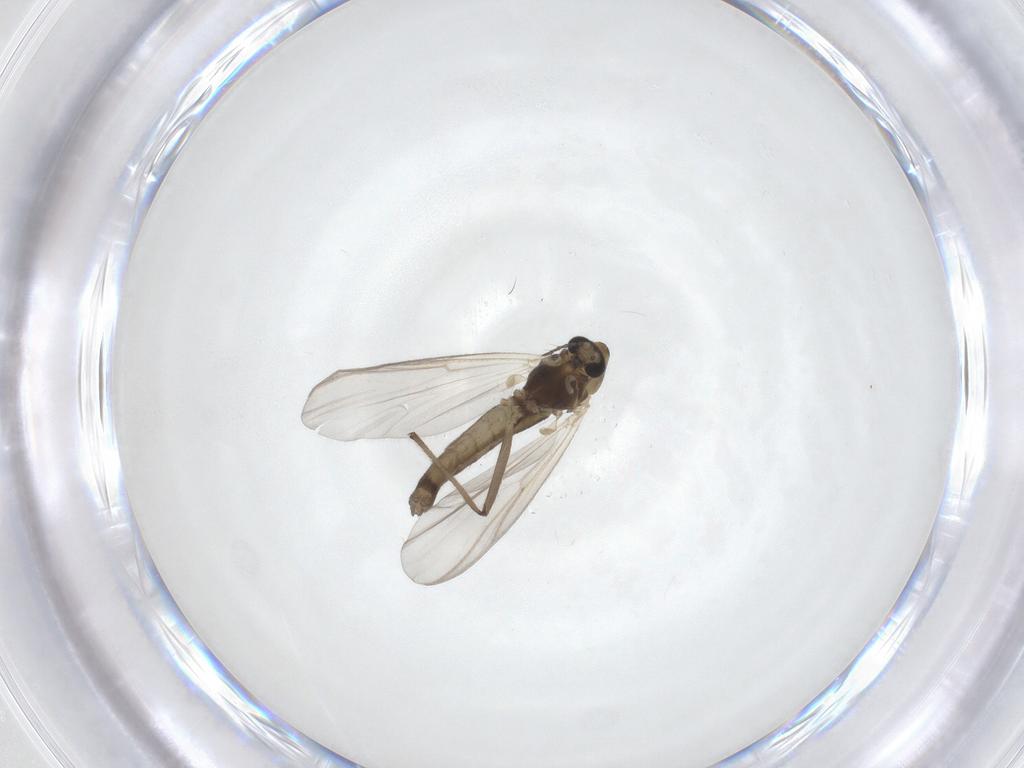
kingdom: Animalia
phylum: Arthropoda
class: Insecta
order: Diptera
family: Chironomidae
